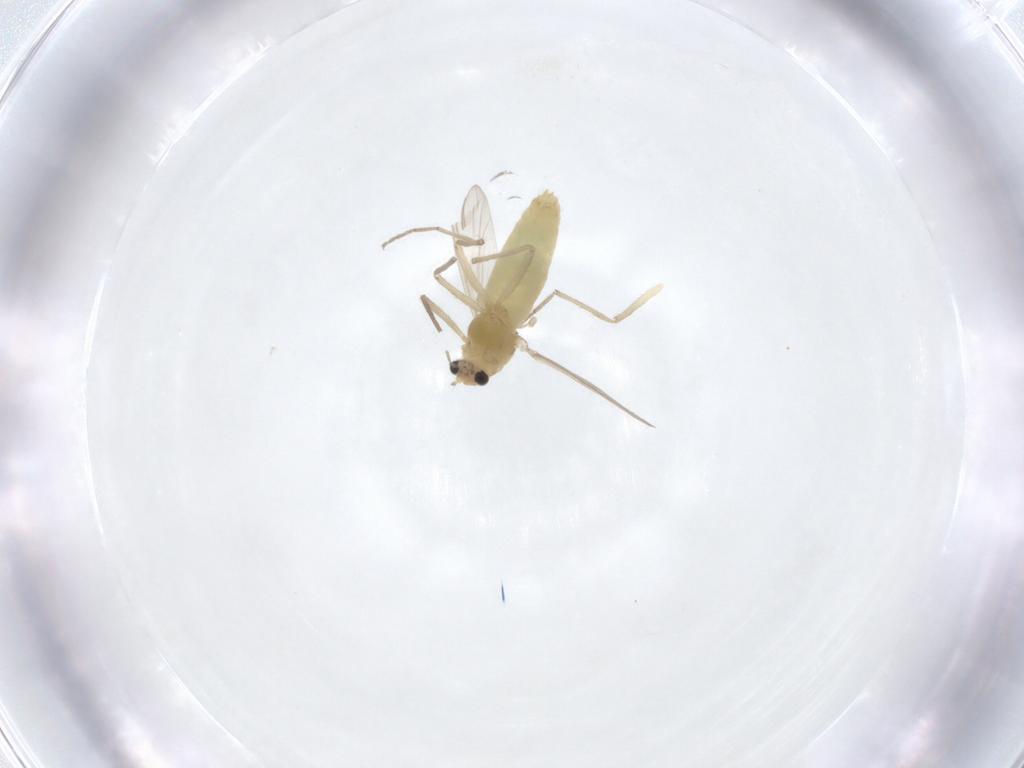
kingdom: Animalia
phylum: Arthropoda
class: Insecta
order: Diptera
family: Chironomidae
